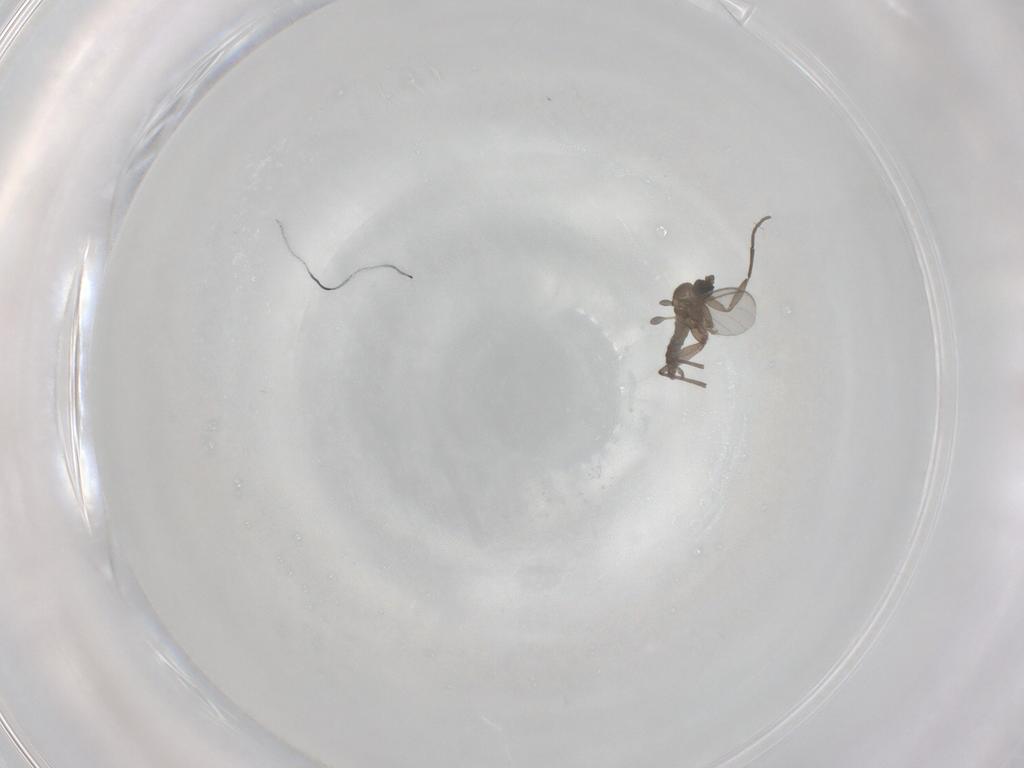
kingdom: Animalia
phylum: Arthropoda
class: Insecta
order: Diptera
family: Sciaridae
